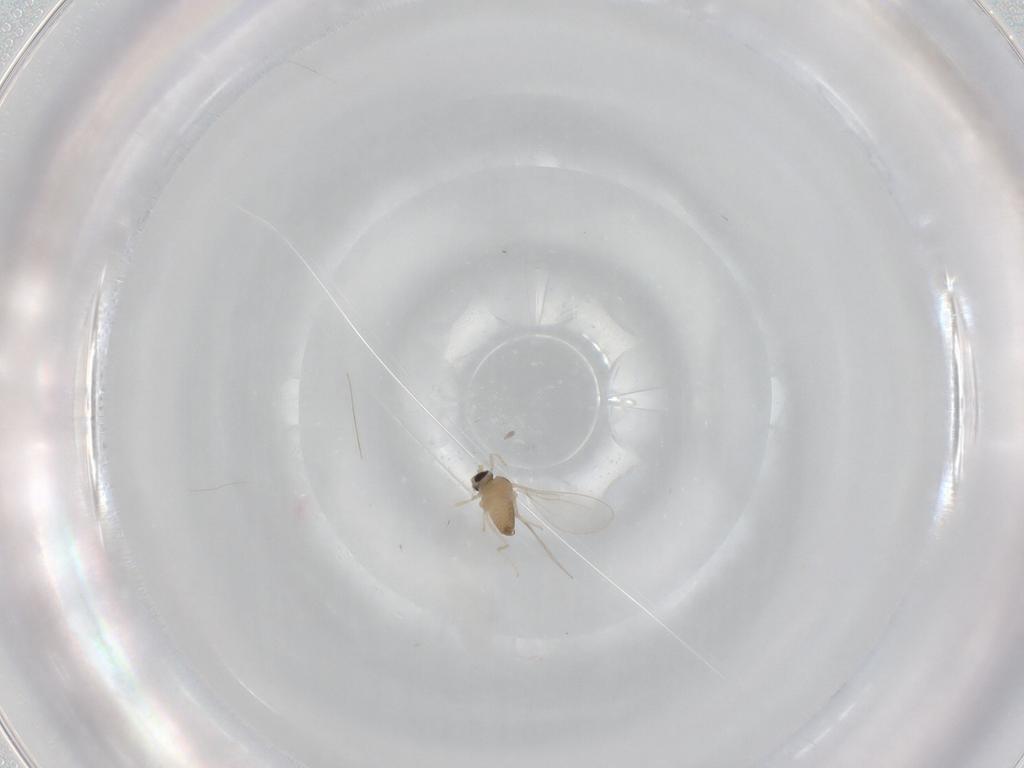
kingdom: Animalia
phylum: Arthropoda
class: Insecta
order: Diptera
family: Cecidomyiidae
